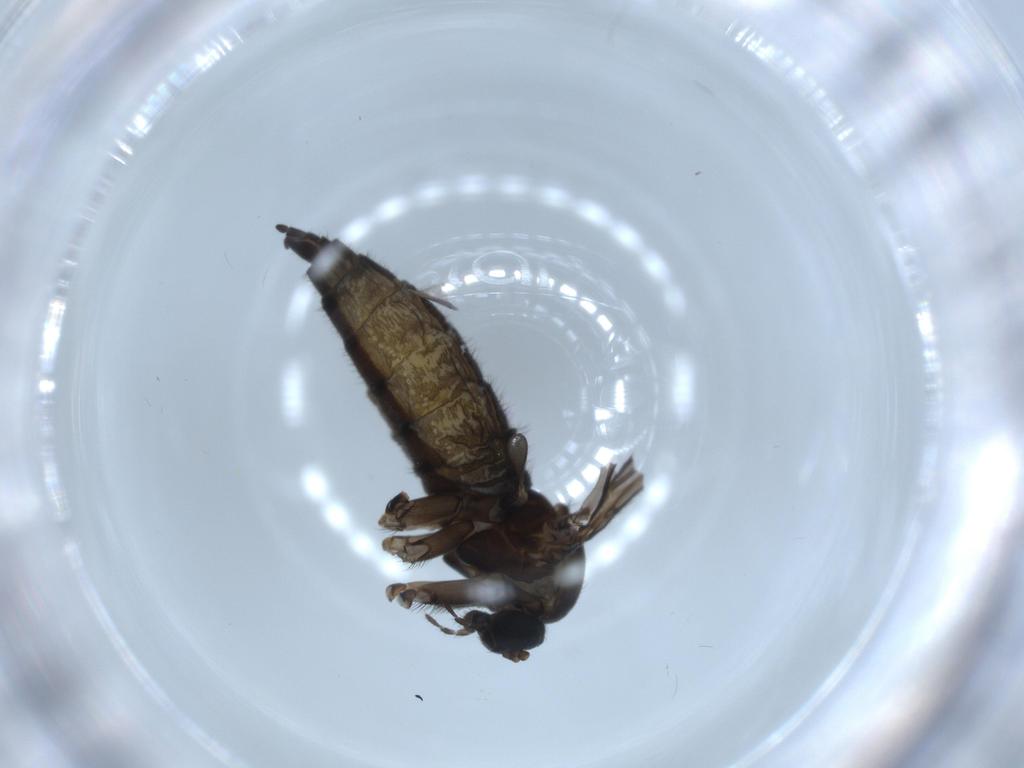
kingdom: Animalia
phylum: Arthropoda
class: Insecta
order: Diptera
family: Sciaridae
